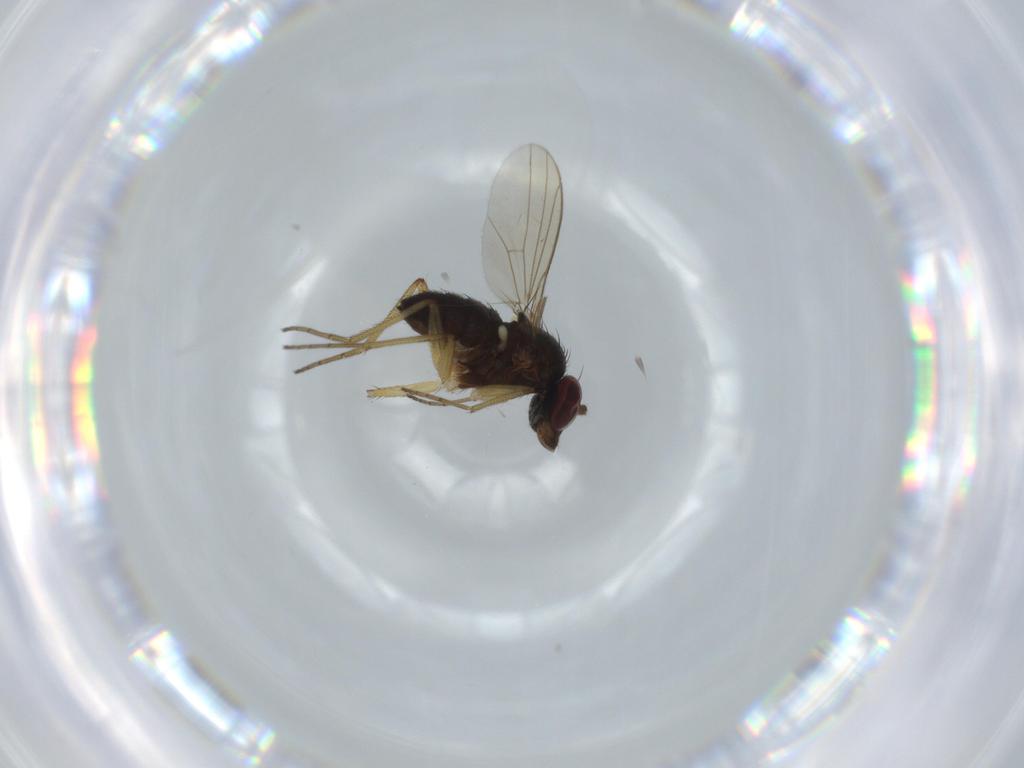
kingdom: Animalia
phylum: Arthropoda
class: Insecta
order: Diptera
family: Dolichopodidae
